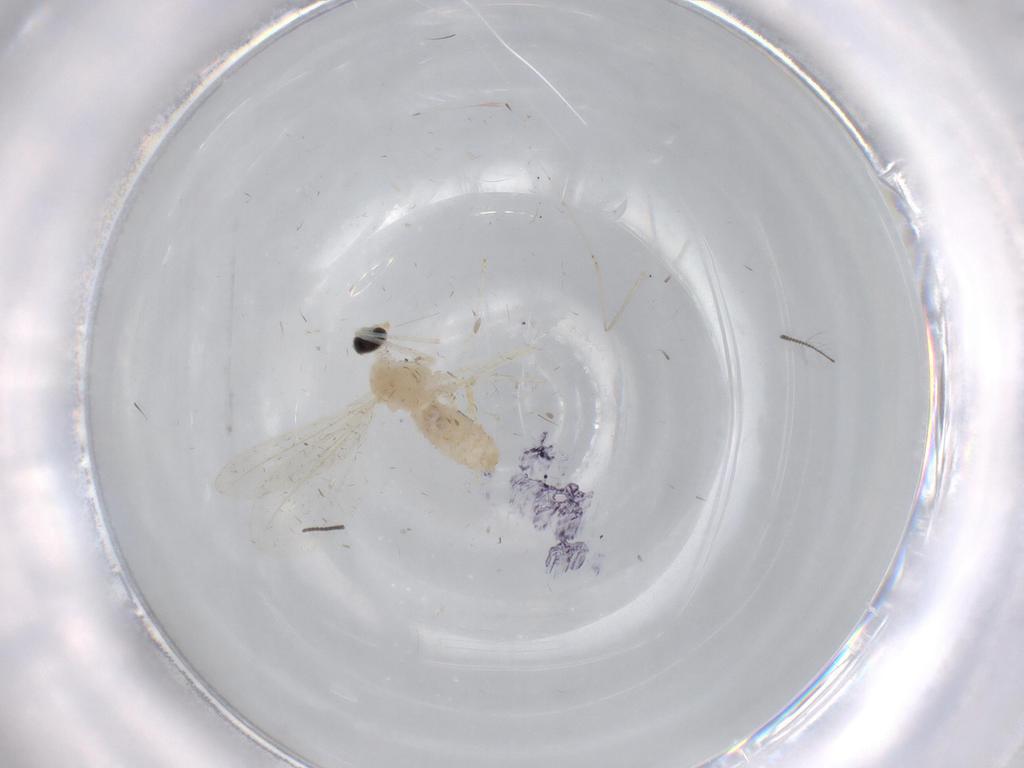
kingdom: Animalia
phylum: Arthropoda
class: Insecta
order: Diptera
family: Cecidomyiidae
